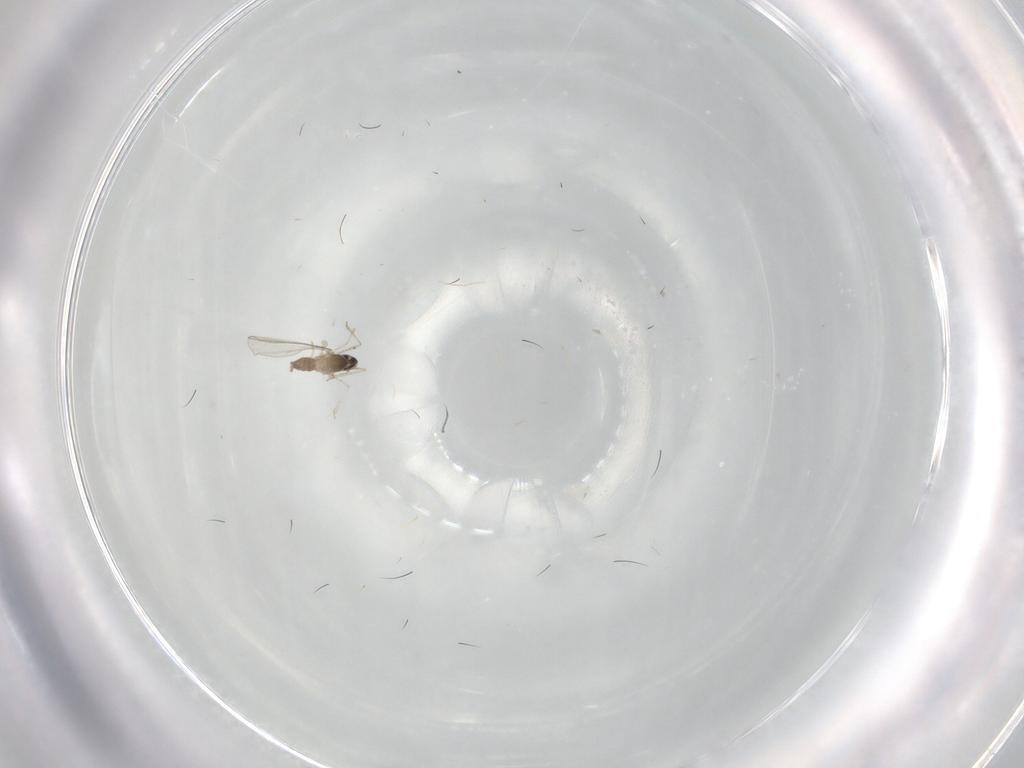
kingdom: Animalia
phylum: Arthropoda
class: Insecta
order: Diptera
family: Cecidomyiidae
